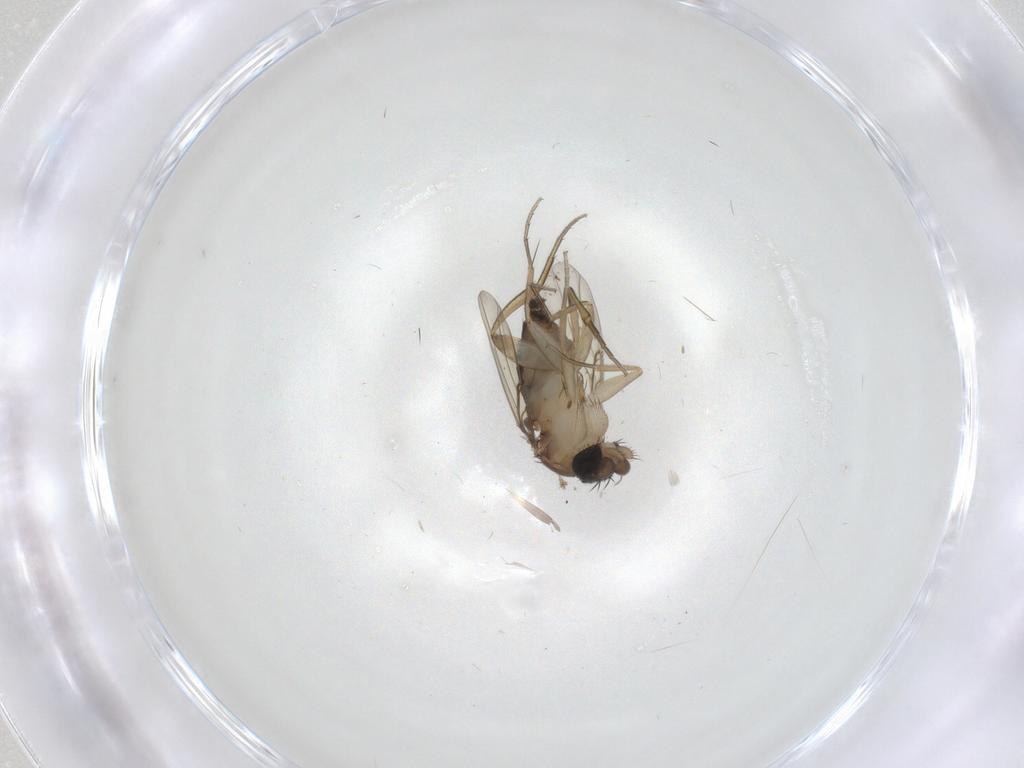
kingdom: Animalia
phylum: Arthropoda
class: Insecta
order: Diptera
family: Phoridae
